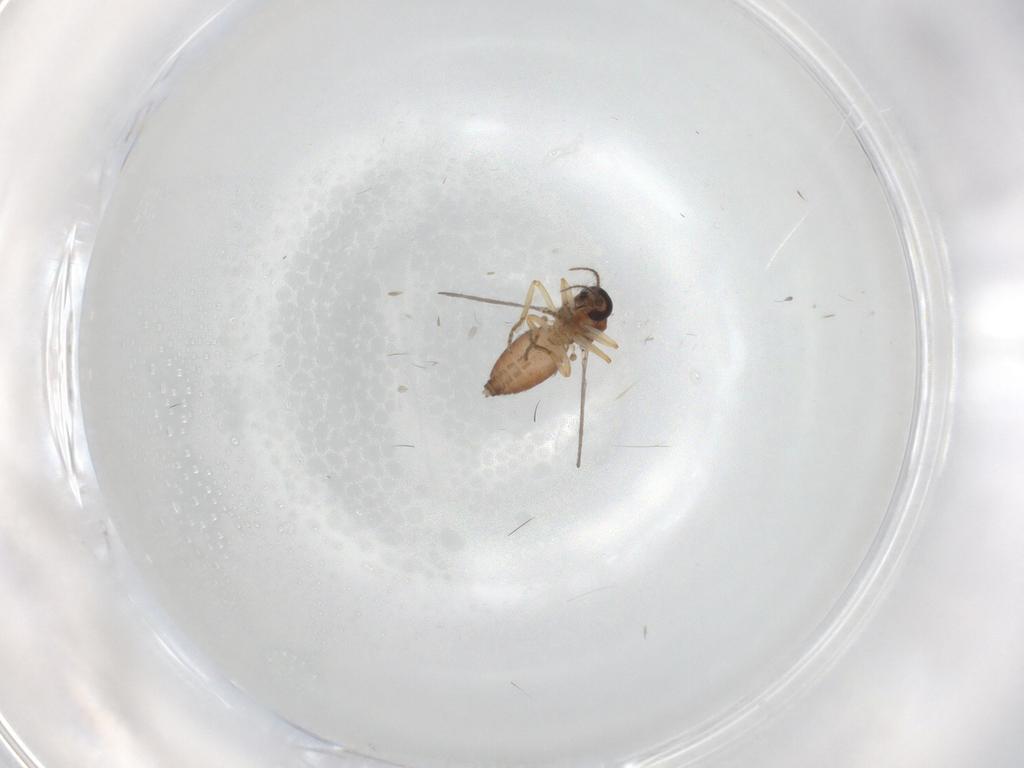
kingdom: Animalia
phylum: Arthropoda
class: Insecta
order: Diptera
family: Ceratopogonidae
